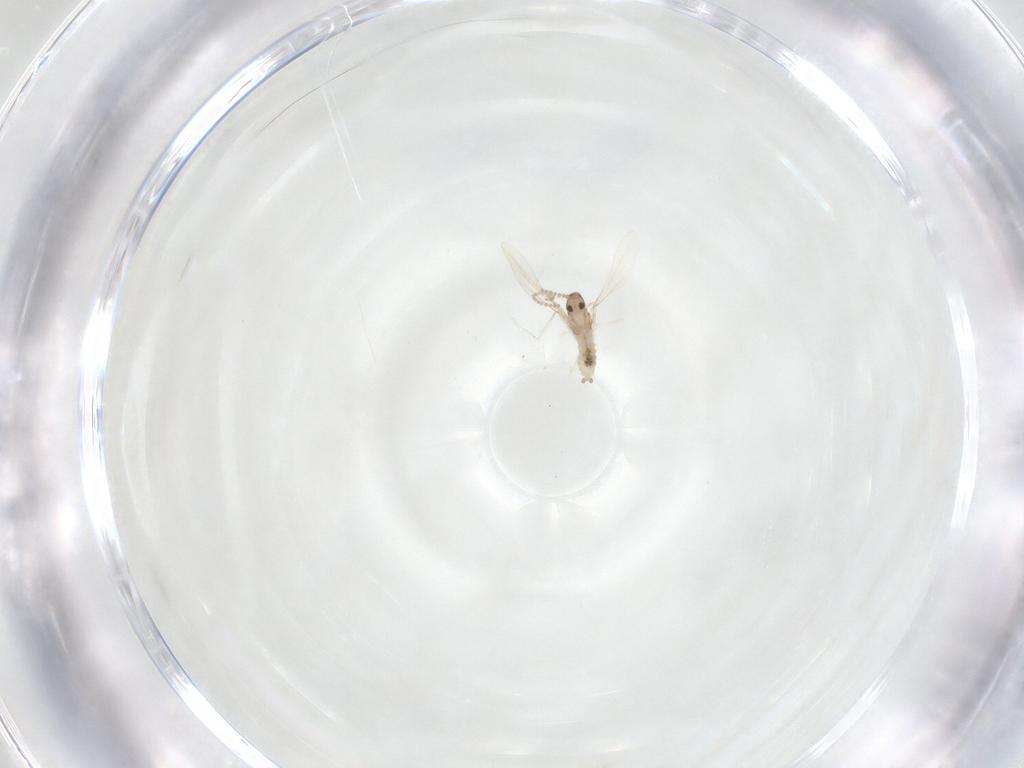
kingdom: Animalia
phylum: Arthropoda
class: Insecta
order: Diptera
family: Cecidomyiidae
